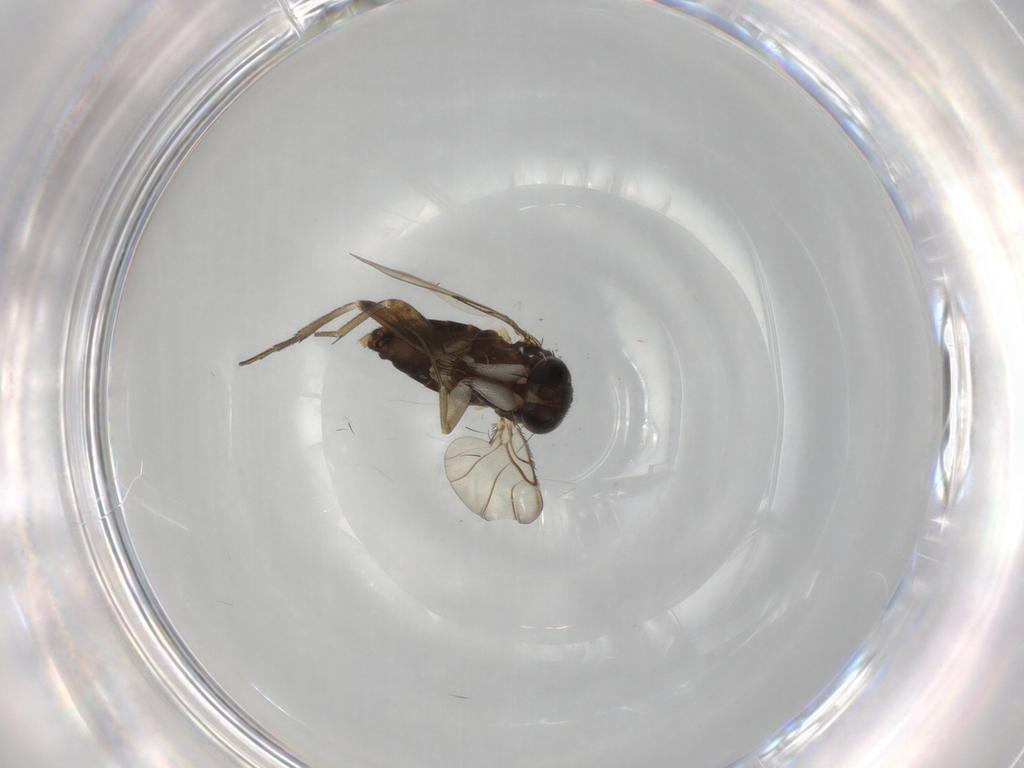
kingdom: Animalia
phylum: Arthropoda
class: Insecta
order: Diptera
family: Phoridae
